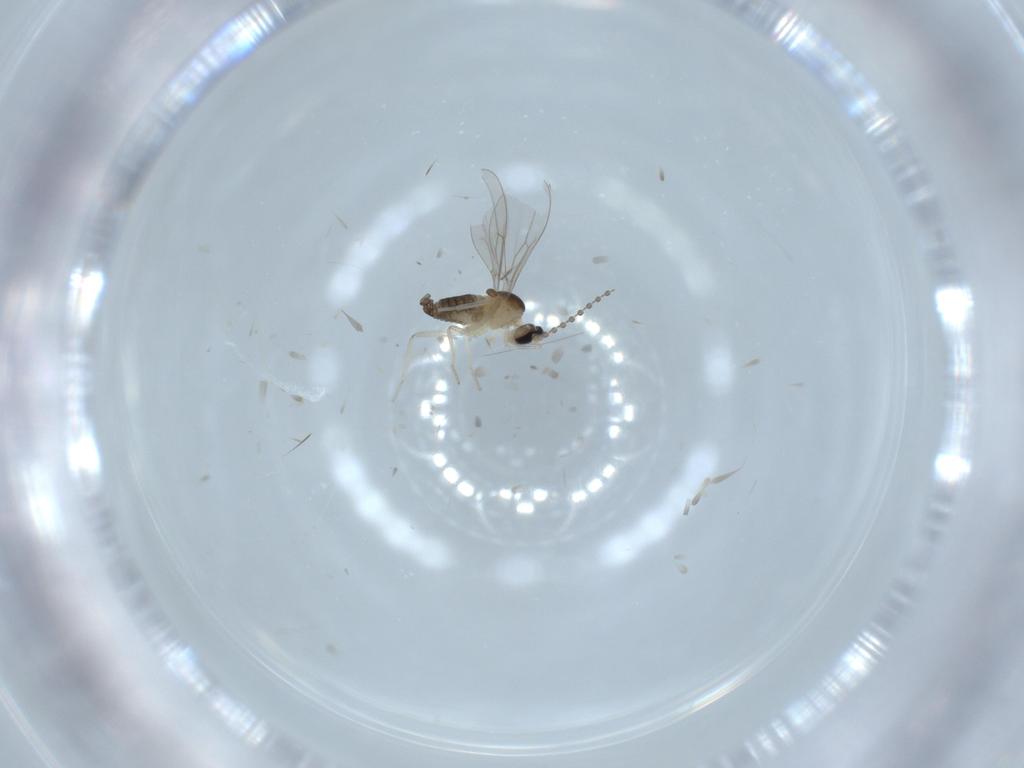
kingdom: Animalia
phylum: Arthropoda
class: Insecta
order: Diptera
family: Cecidomyiidae
